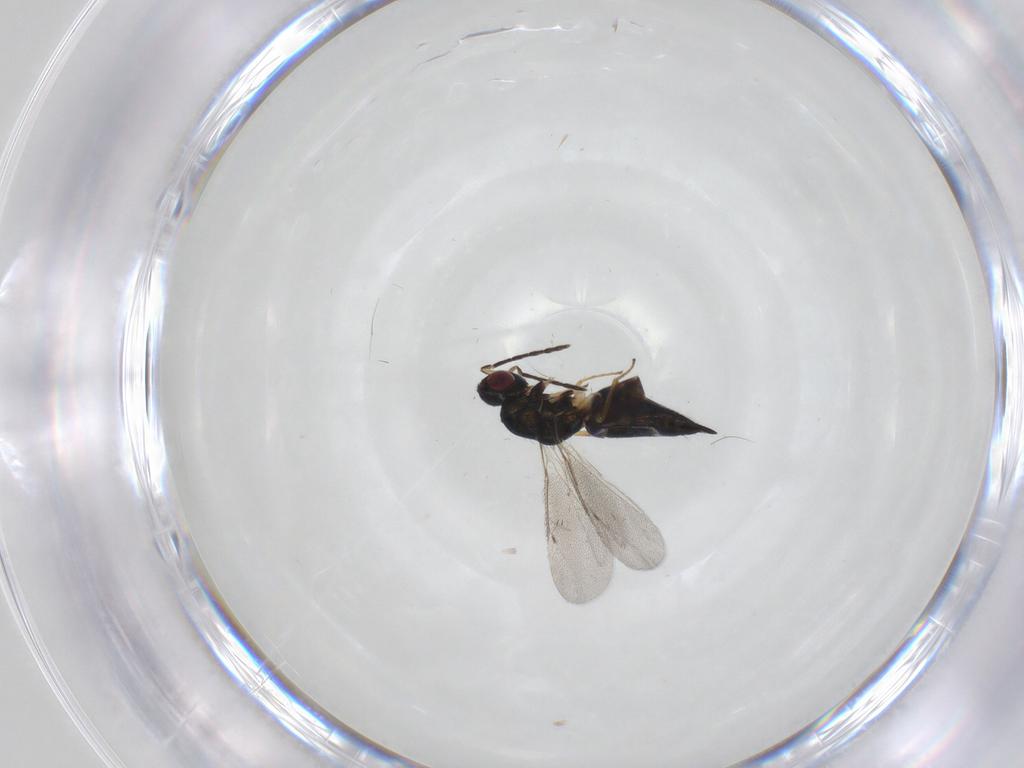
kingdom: Animalia
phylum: Arthropoda
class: Insecta
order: Hymenoptera
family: Eulophidae
